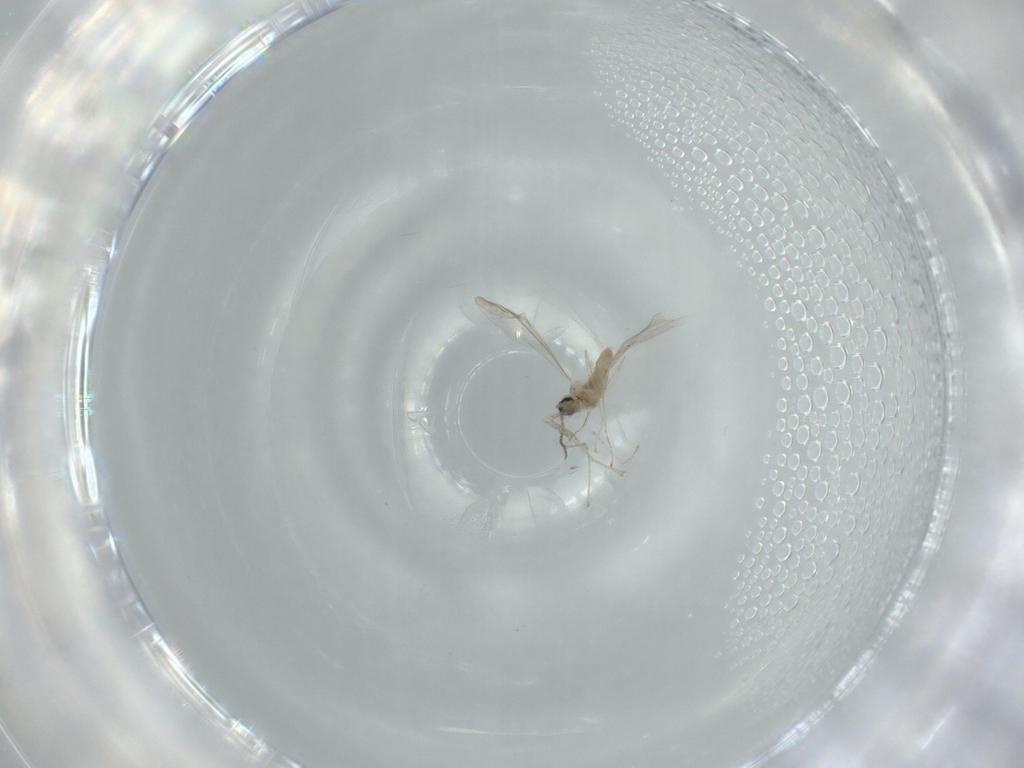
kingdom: Animalia
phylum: Arthropoda
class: Insecta
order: Diptera
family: Cecidomyiidae
